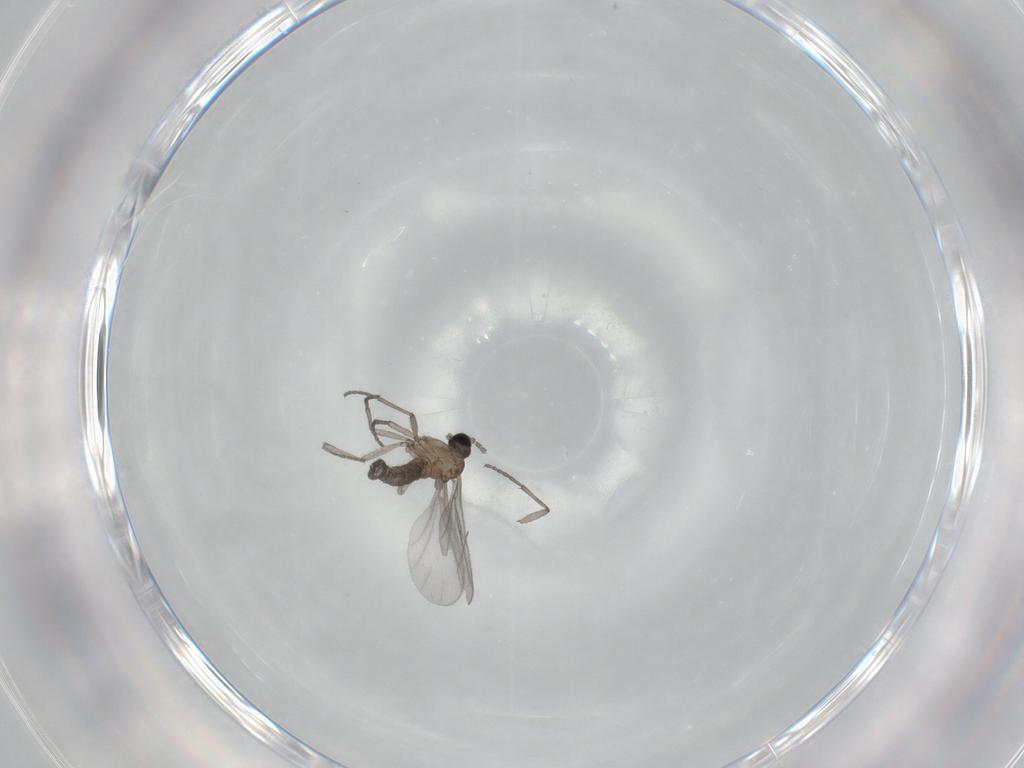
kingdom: Animalia
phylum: Arthropoda
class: Insecta
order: Diptera
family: Sciaridae
